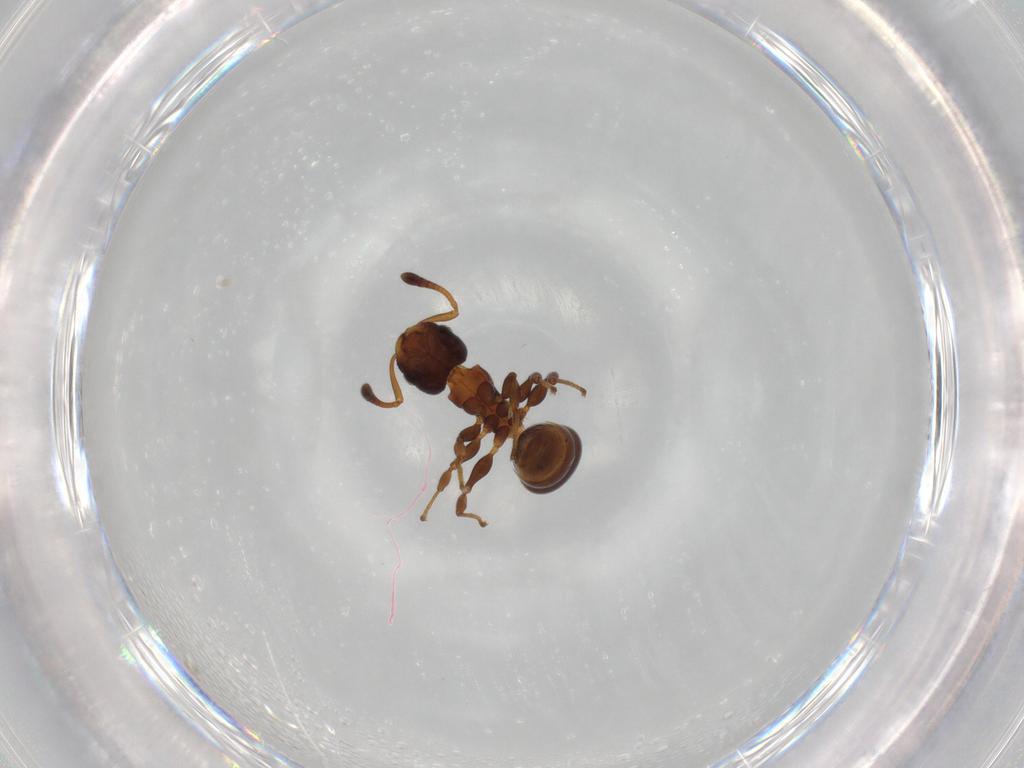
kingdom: Animalia
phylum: Arthropoda
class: Insecta
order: Hymenoptera
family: Formicidae
